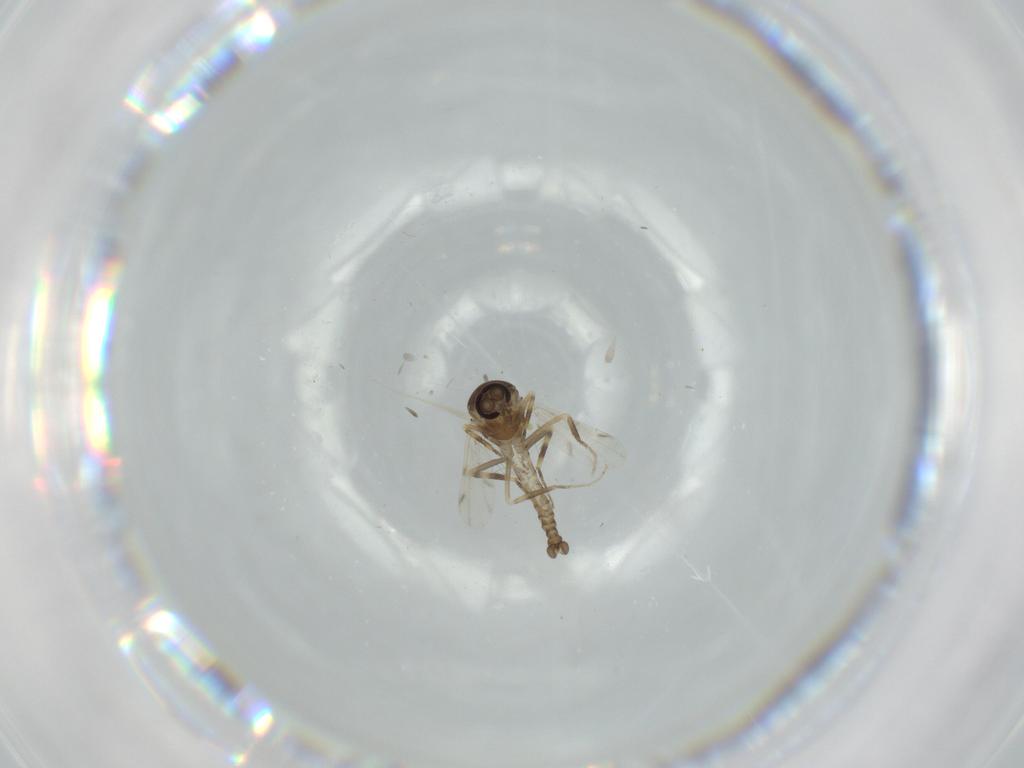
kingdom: Animalia
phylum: Arthropoda
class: Insecta
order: Diptera
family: Ceratopogonidae
